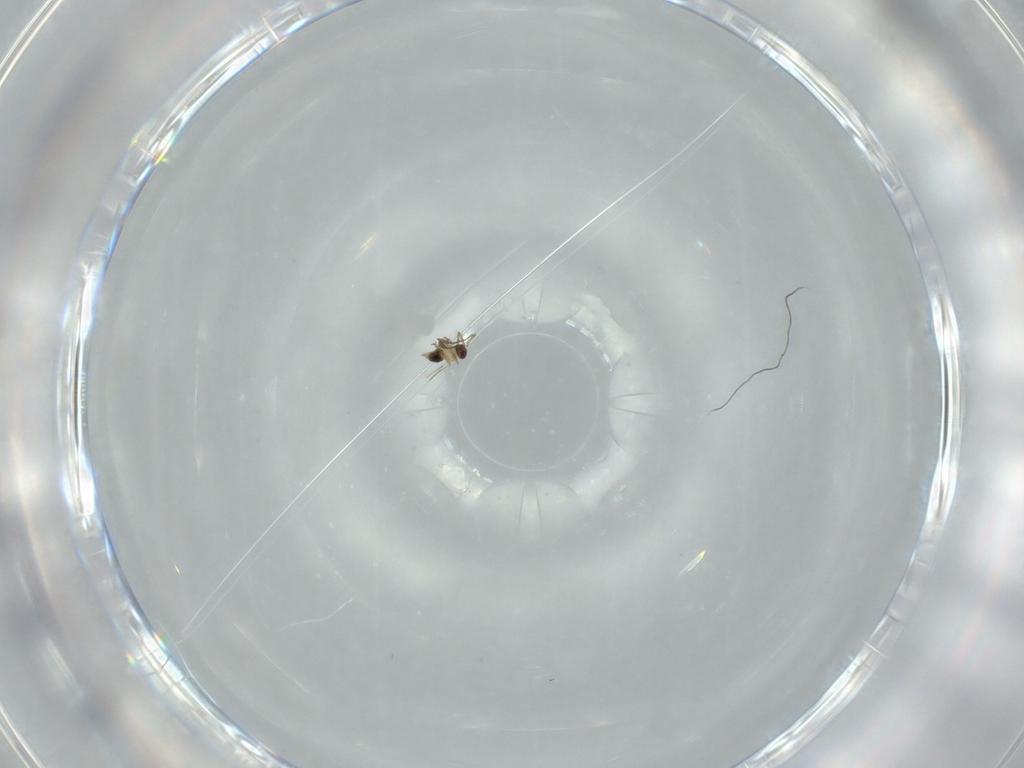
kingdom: Animalia
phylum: Arthropoda
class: Insecta
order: Hymenoptera
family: Mymaridae
